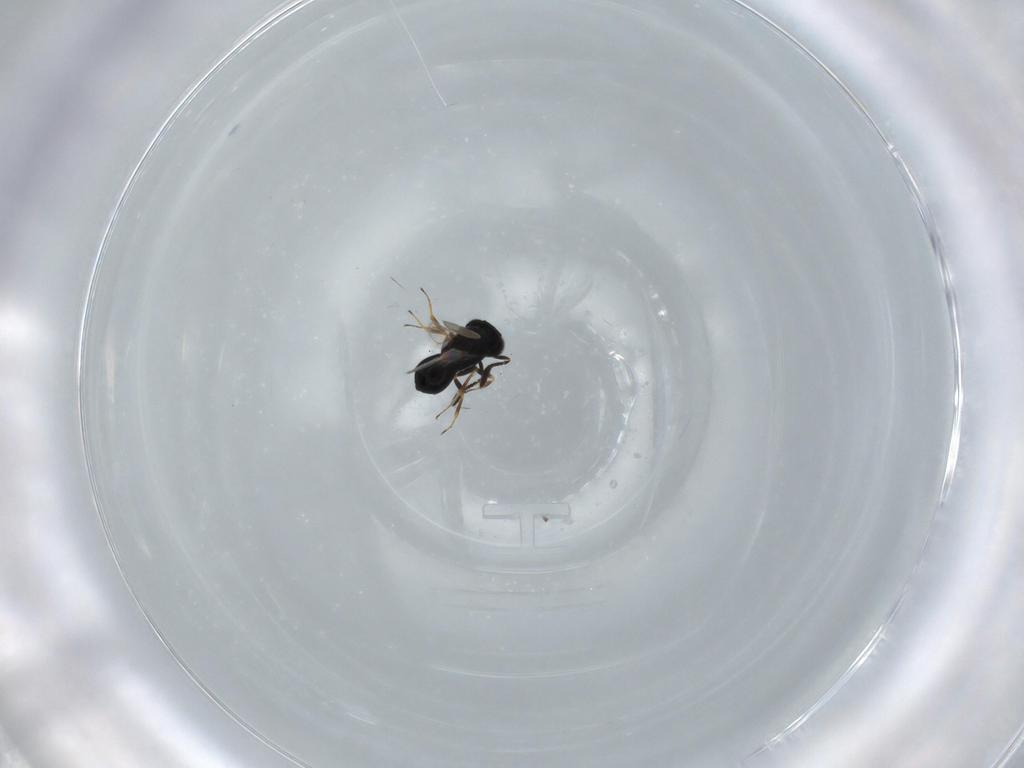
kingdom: Animalia
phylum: Arthropoda
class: Insecta
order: Hymenoptera
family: Scelionidae
